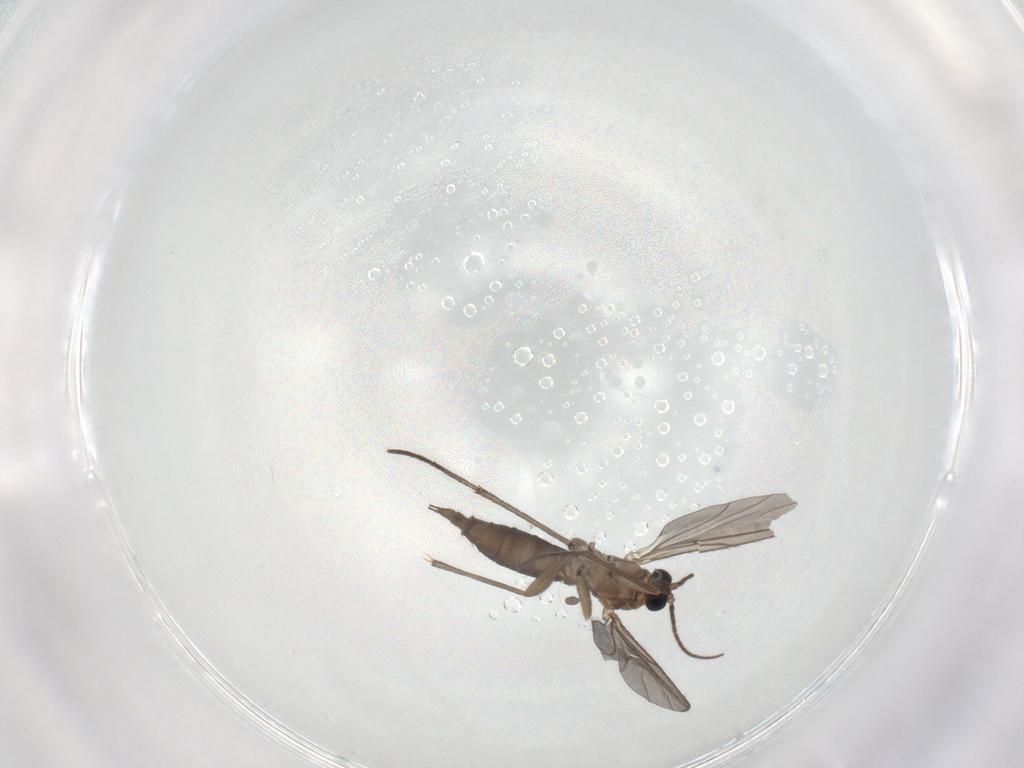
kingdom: Animalia
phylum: Arthropoda
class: Insecta
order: Diptera
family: Sciaridae
